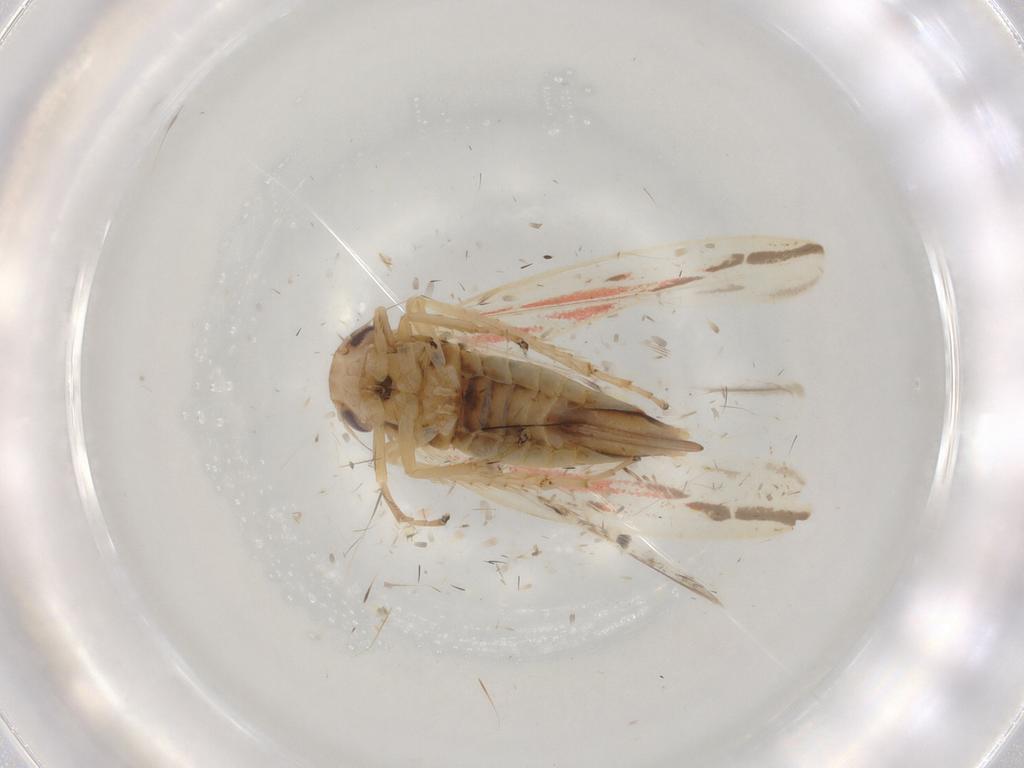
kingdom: Animalia
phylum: Arthropoda
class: Insecta
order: Hemiptera
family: Cicadellidae
